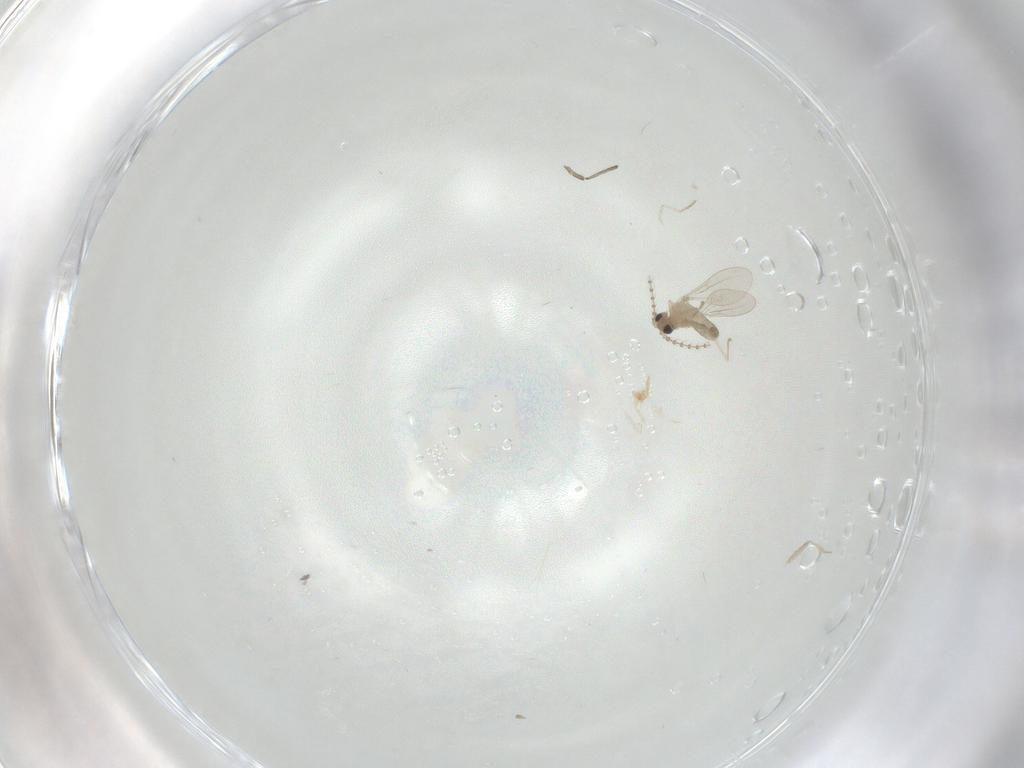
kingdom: Animalia
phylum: Arthropoda
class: Insecta
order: Diptera
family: Cecidomyiidae
